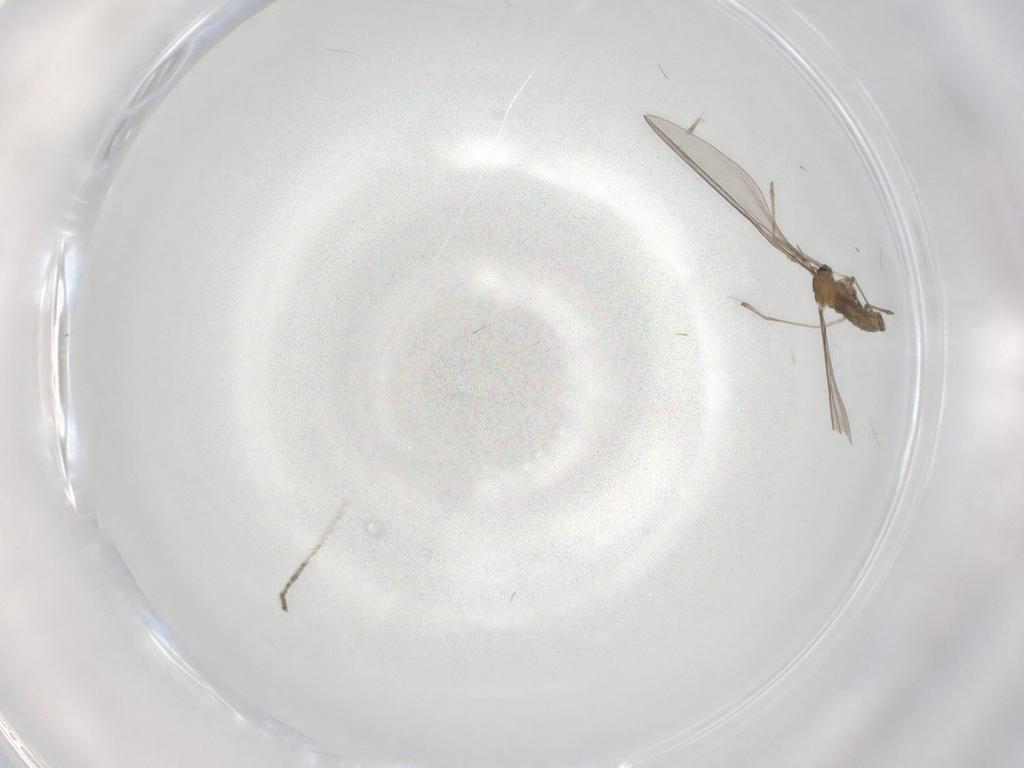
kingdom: Animalia
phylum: Arthropoda
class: Insecta
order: Diptera
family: Cecidomyiidae
